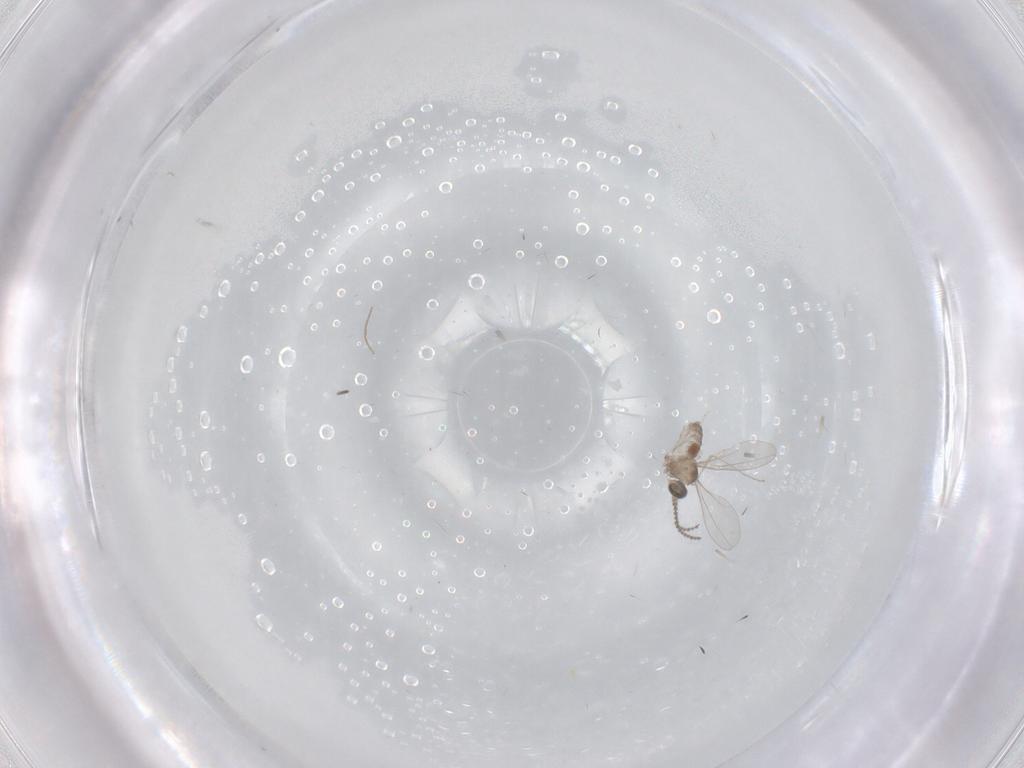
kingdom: Animalia
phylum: Arthropoda
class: Insecta
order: Diptera
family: Cecidomyiidae
